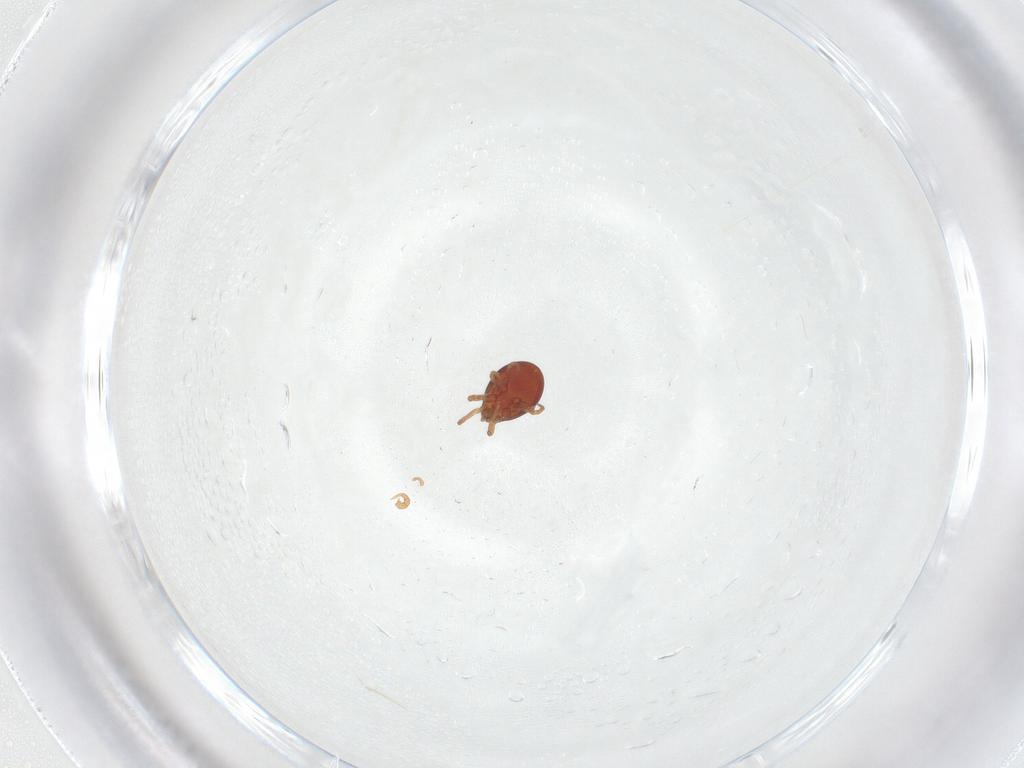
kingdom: Animalia
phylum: Arthropoda
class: Arachnida
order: Mesostigmata
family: Parasitidae
